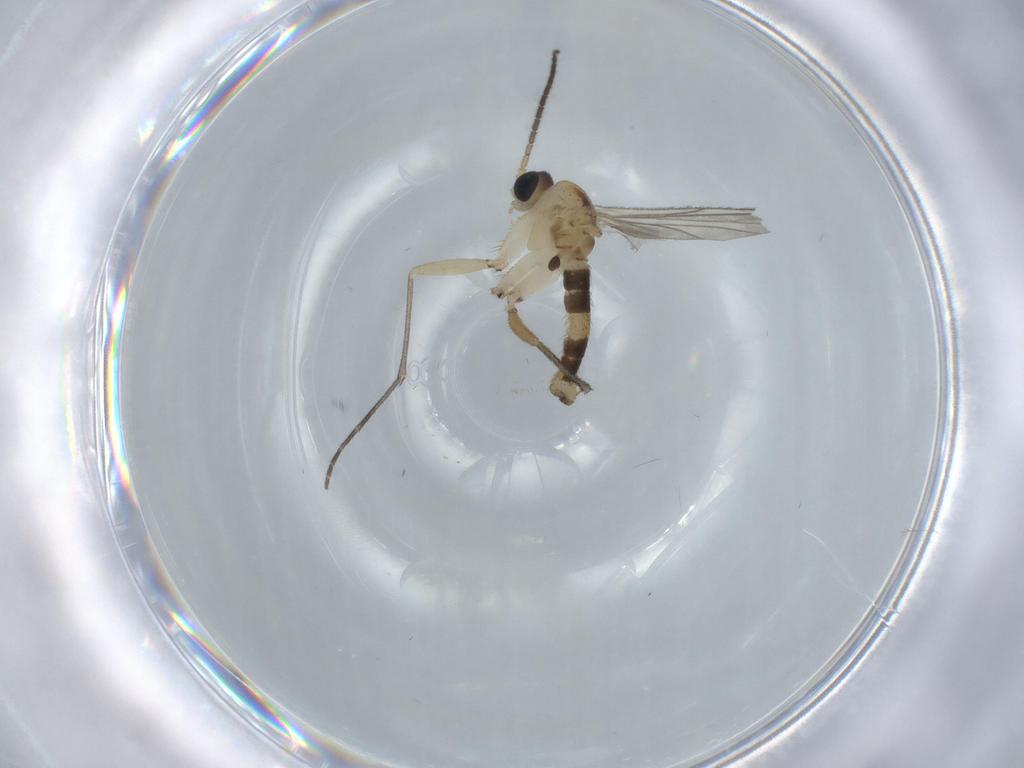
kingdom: Animalia
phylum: Arthropoda
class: Insecta
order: Diptera
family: Sciaridae
